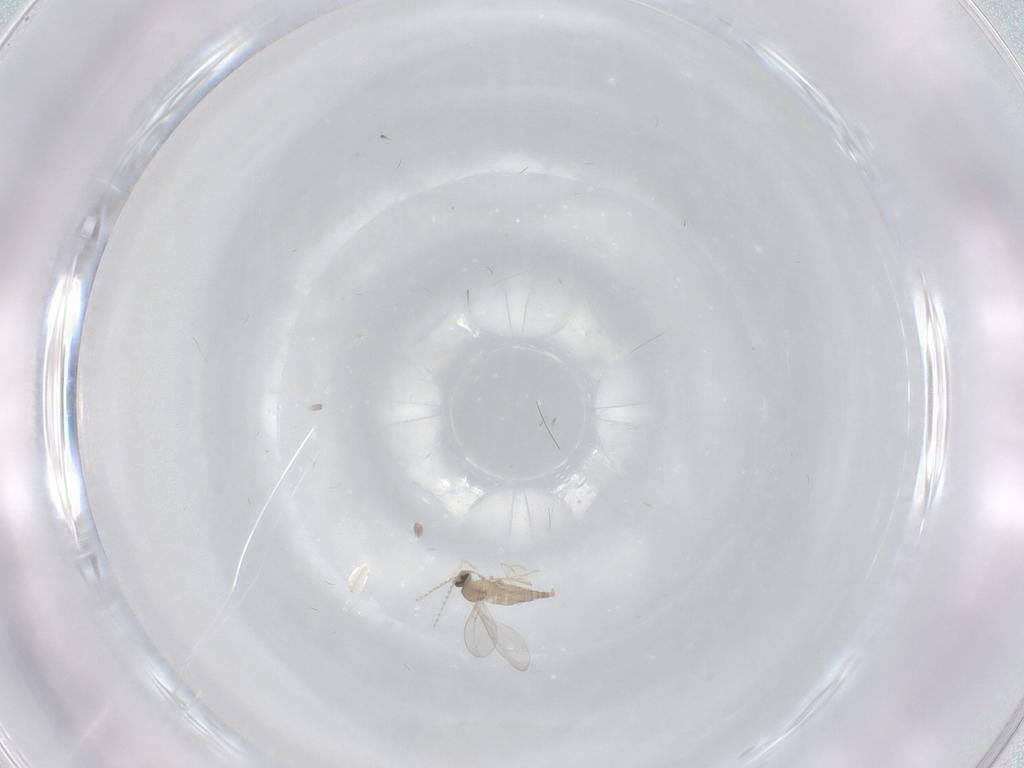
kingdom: Animalia
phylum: Arthropoda
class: Insecta
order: Diptera
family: Cecidomyiidae
